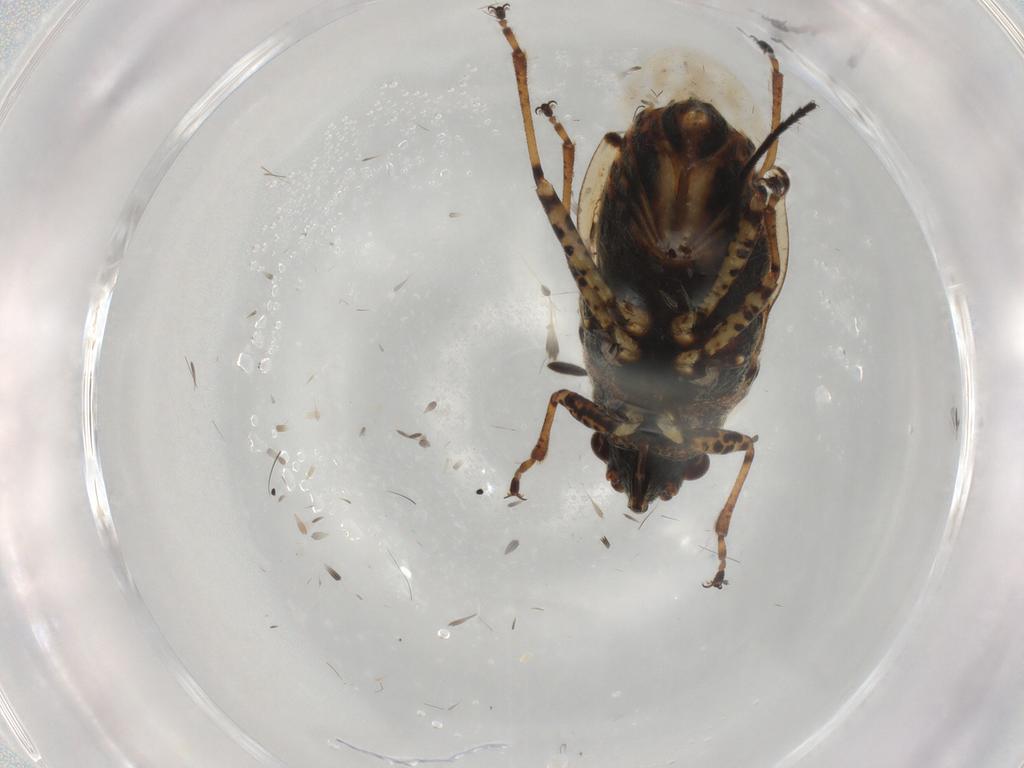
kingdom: Animalia
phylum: Arthropoda
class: Insecta
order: Hemiptera
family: Lygaeidae
